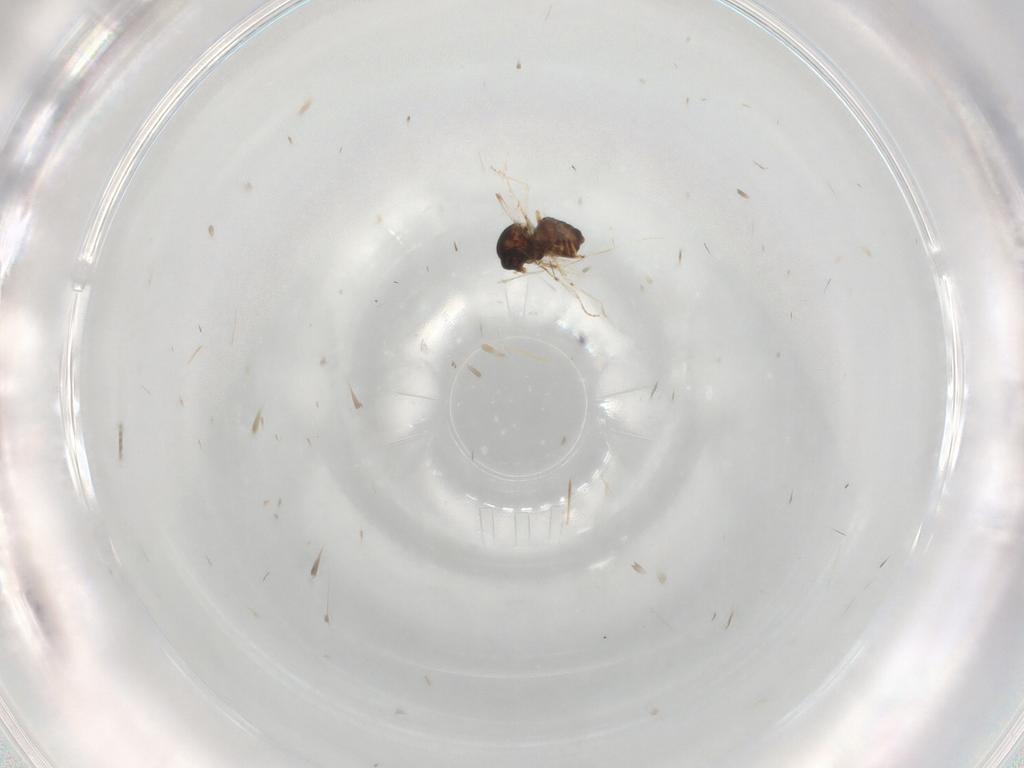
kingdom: Animalia
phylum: Arthropoda
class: Insecta
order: Diptera
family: Ceratopogonidae
